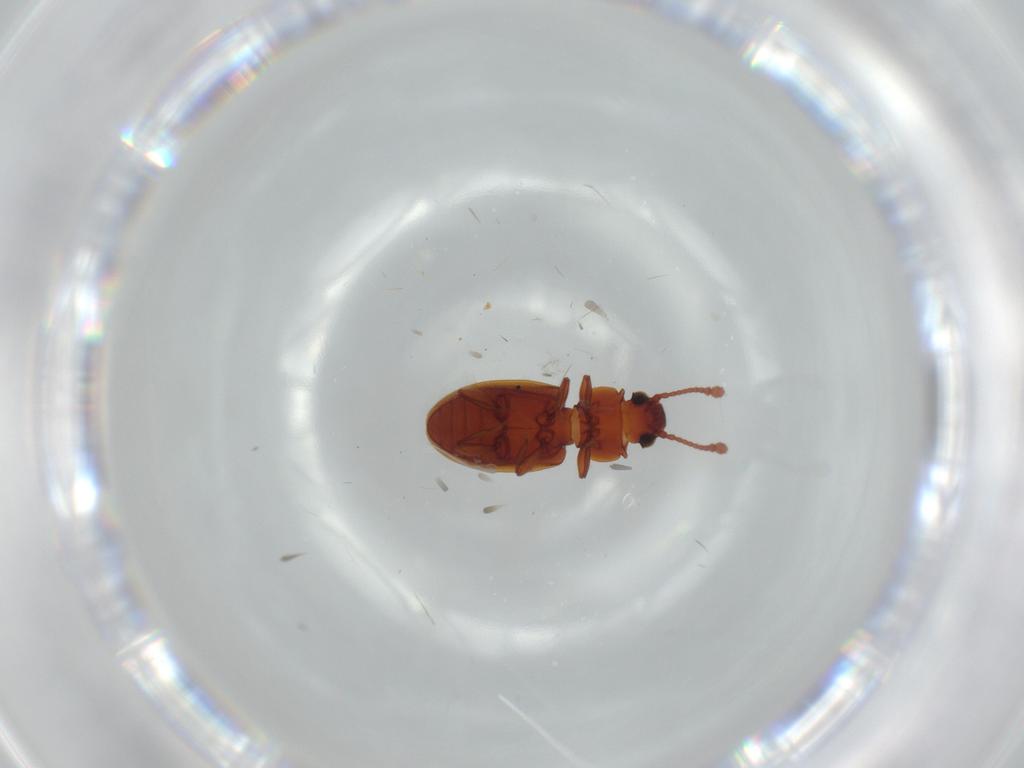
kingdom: Animalia
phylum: Arthropoda
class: Insecta
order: Coleoptera
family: Silvanidae
